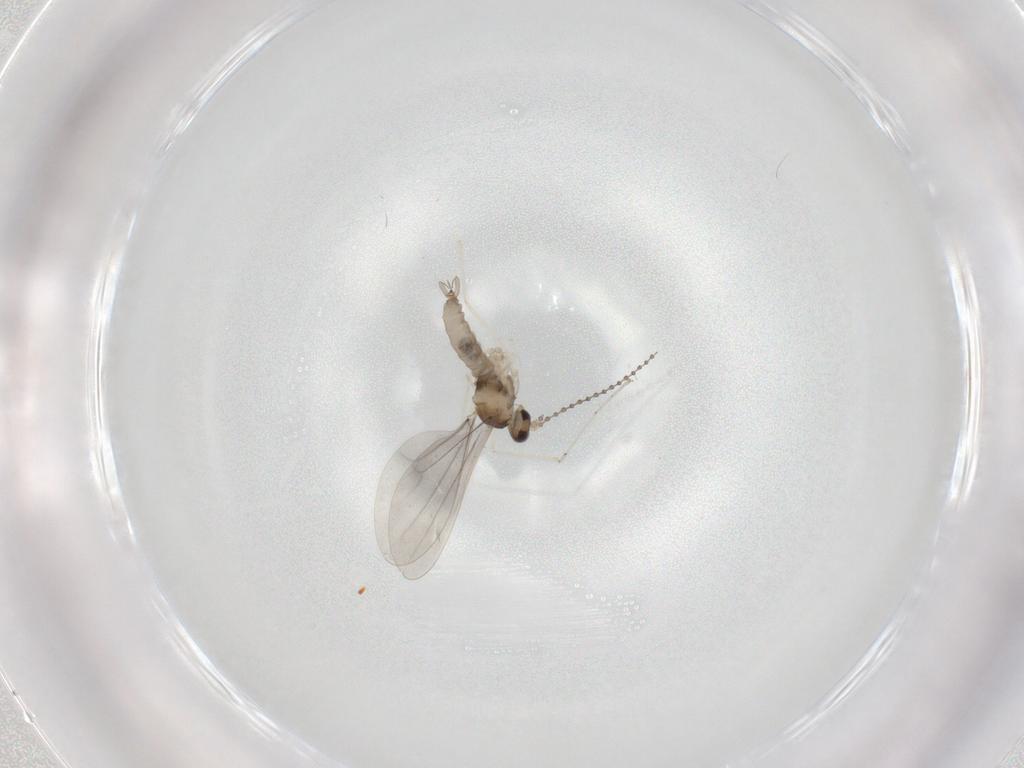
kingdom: Animalia
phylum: Arthropoda
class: Insecta
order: Diptera
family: Cecidomyiidae
